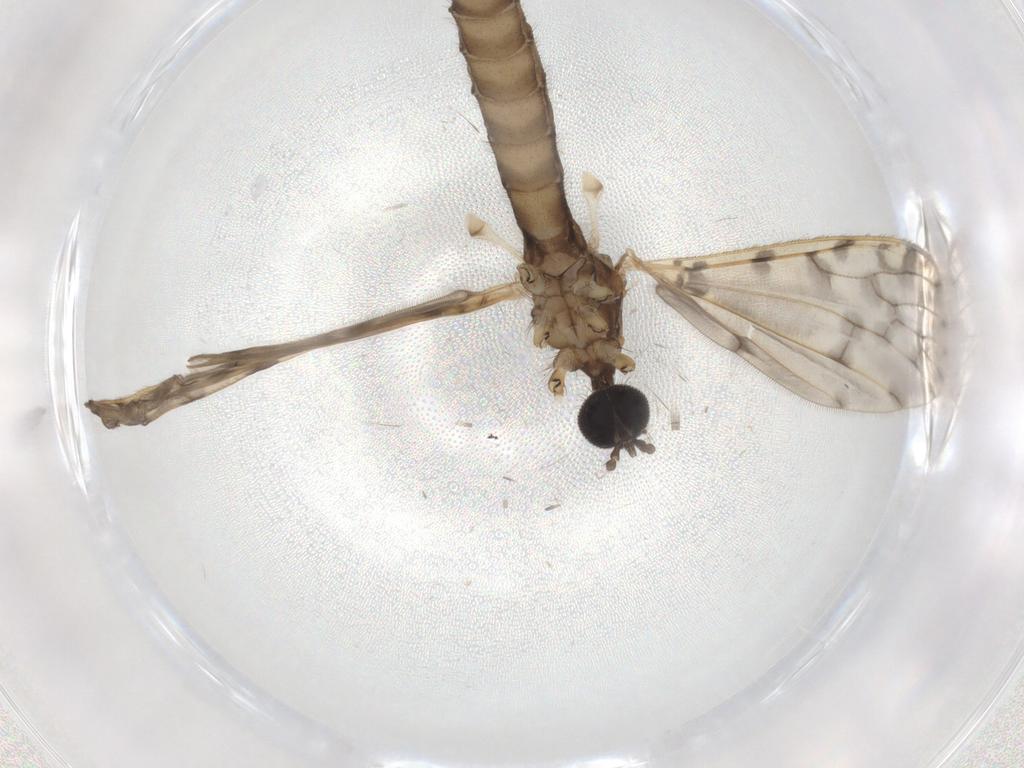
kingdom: Animalia
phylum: Arthropoda
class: Insecta
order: Diptera
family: Limoniidae
